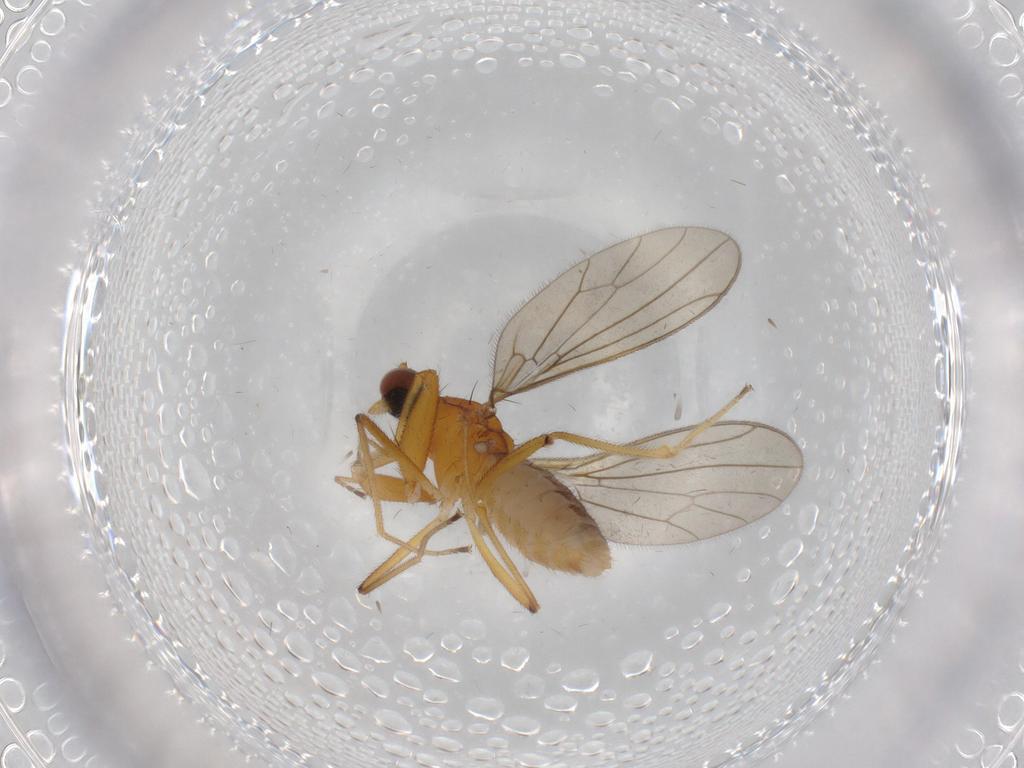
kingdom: Animalia
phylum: Arthropoda
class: Insecta
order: Diptera
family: Empididae
